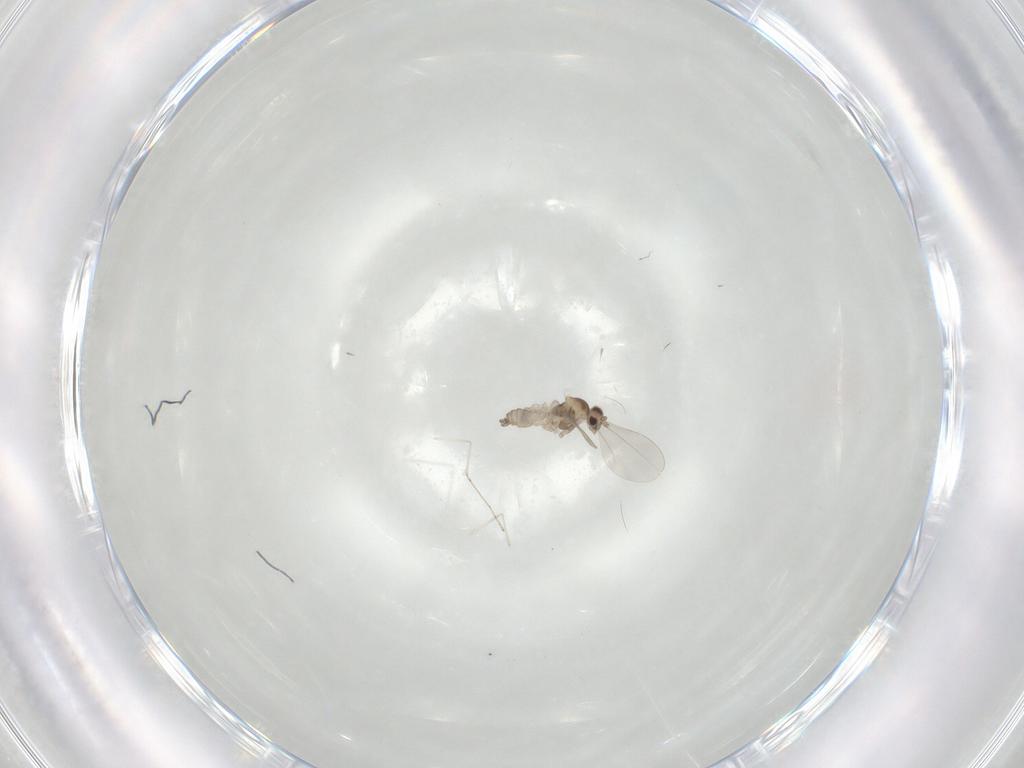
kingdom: Animalia
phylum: Arthropoda
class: Insecta
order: Diptera
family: Cecidomyiidae
